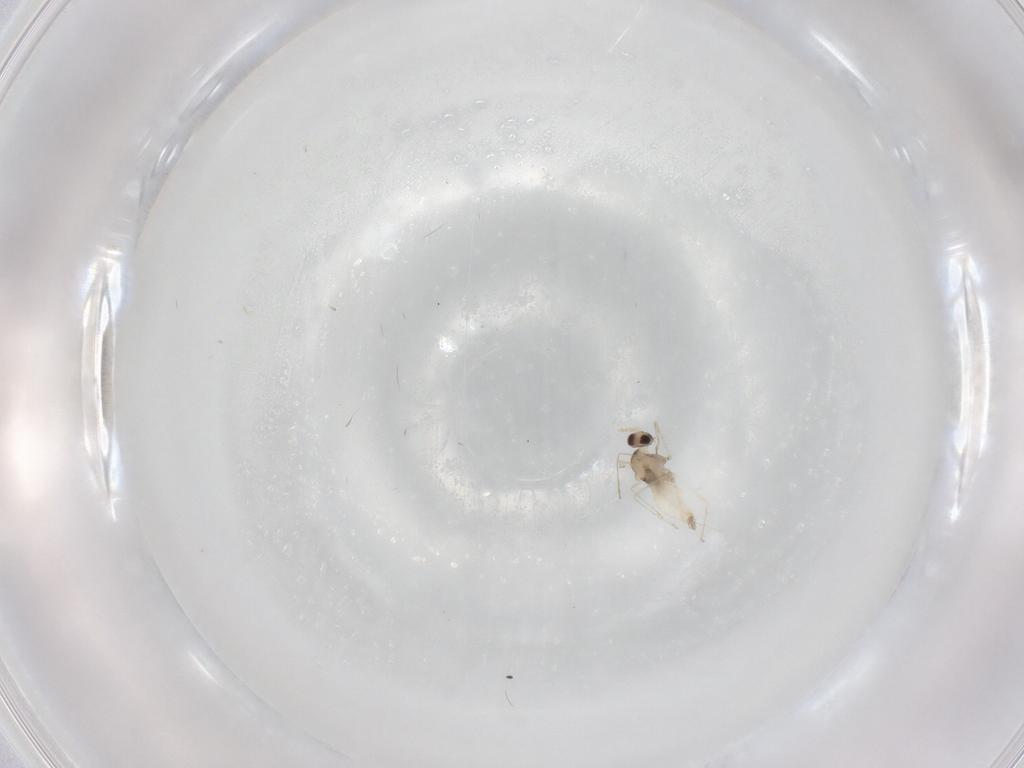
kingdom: Animalia
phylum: Arthropoda
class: Insecta
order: Diptera
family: Cecidomyiidae
